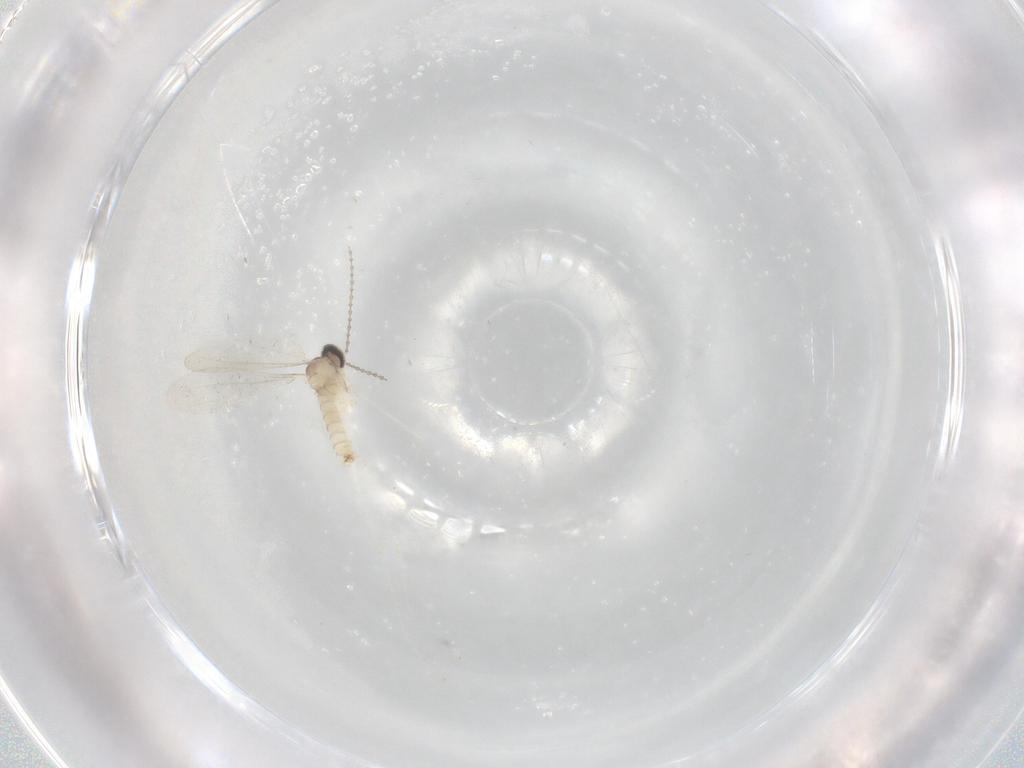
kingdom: Animalia
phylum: Arthropoda
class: Insecta
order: Diptera
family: Cecidomyiidae
